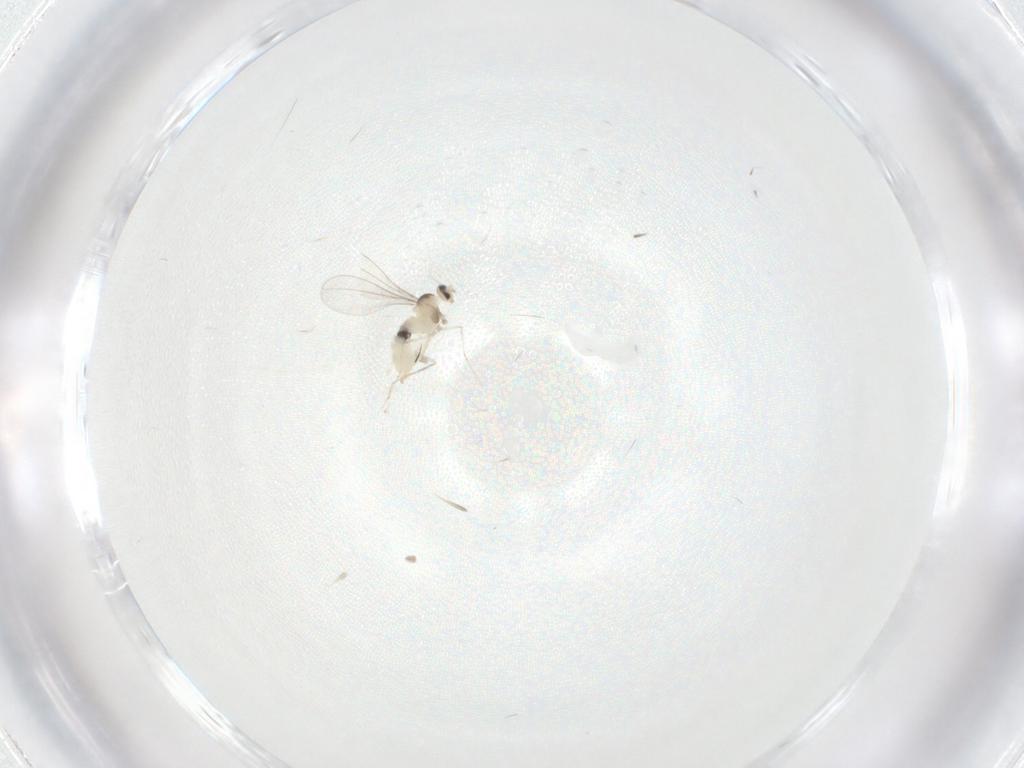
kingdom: Animalia
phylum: Arthropoda
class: Insecta
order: Diptera
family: Cecidomyiidae
